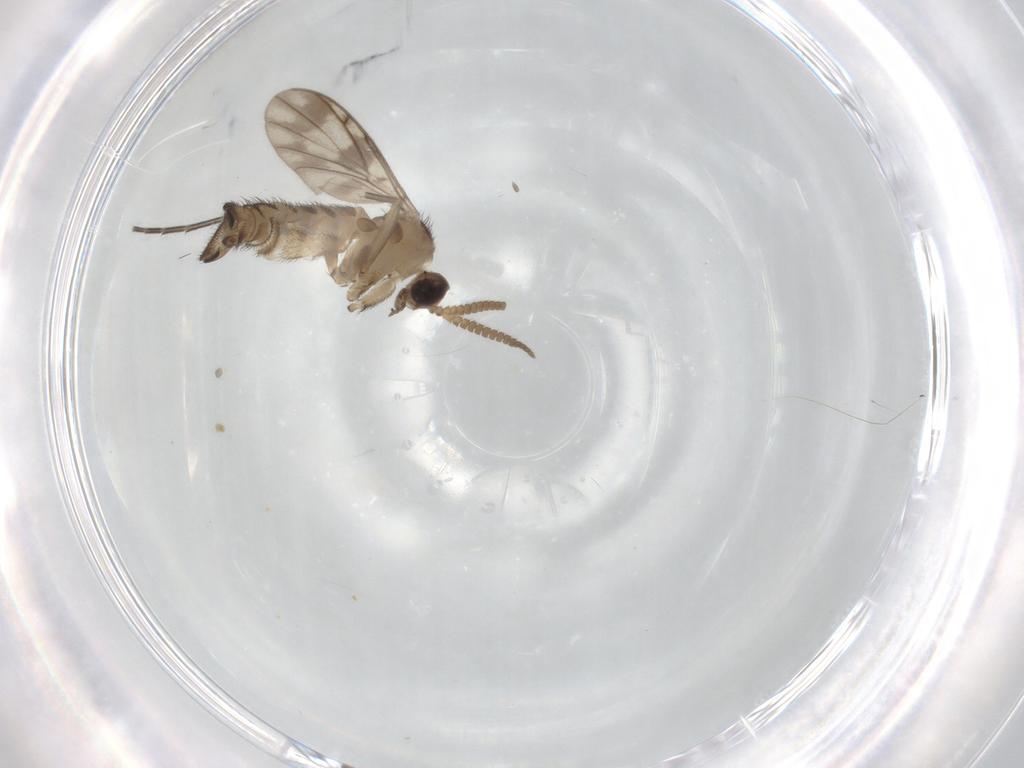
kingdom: Animalia
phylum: Arthropoda
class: Insecta
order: Diptera
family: Keroplatidae
